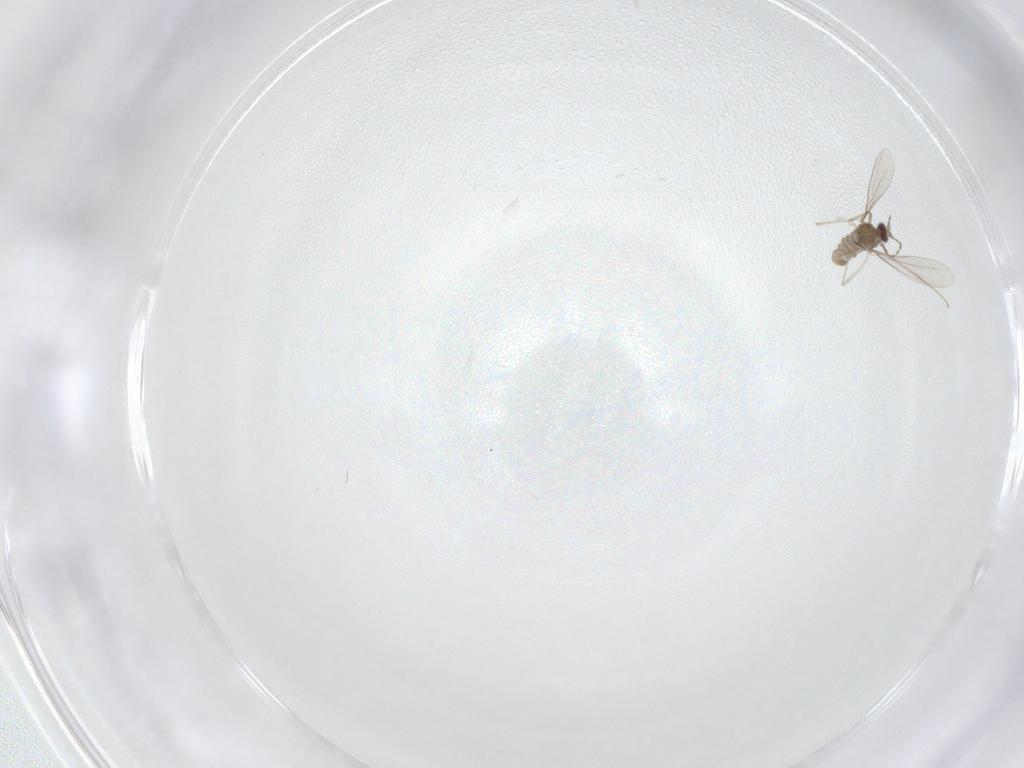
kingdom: Animalia
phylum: Arthropoda
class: Insecta
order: Diptera
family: Cecidomyiidae
